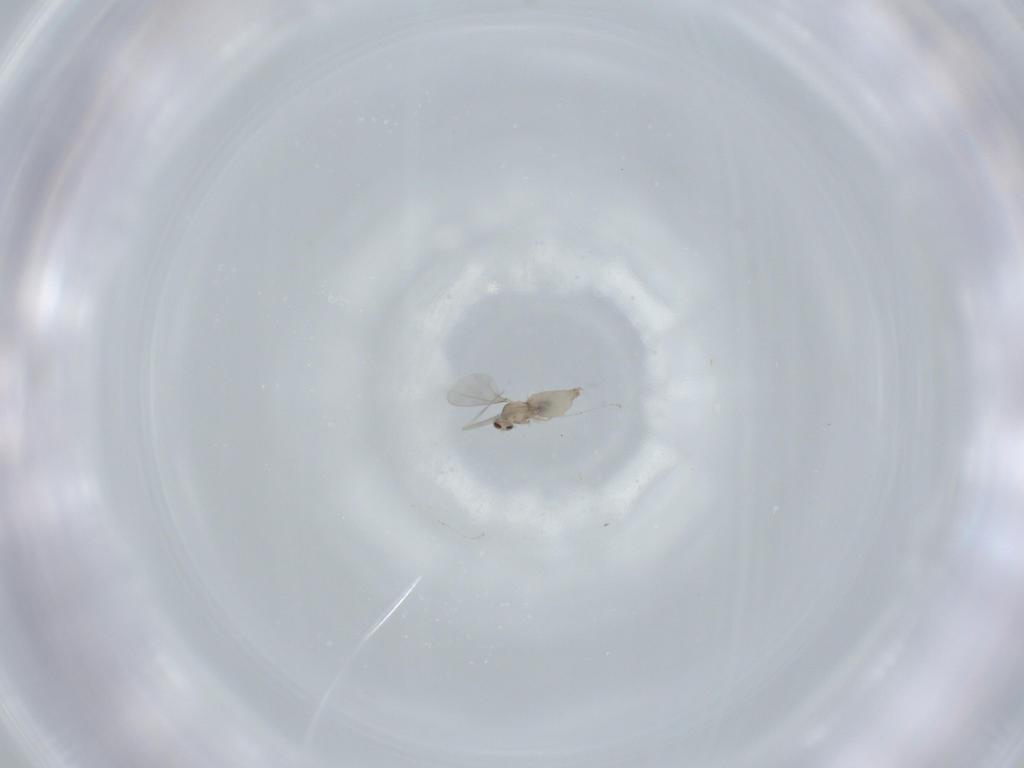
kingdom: Animalia
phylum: Arthropoda
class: Insecta
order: Diptera
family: Cecidomyiidae
